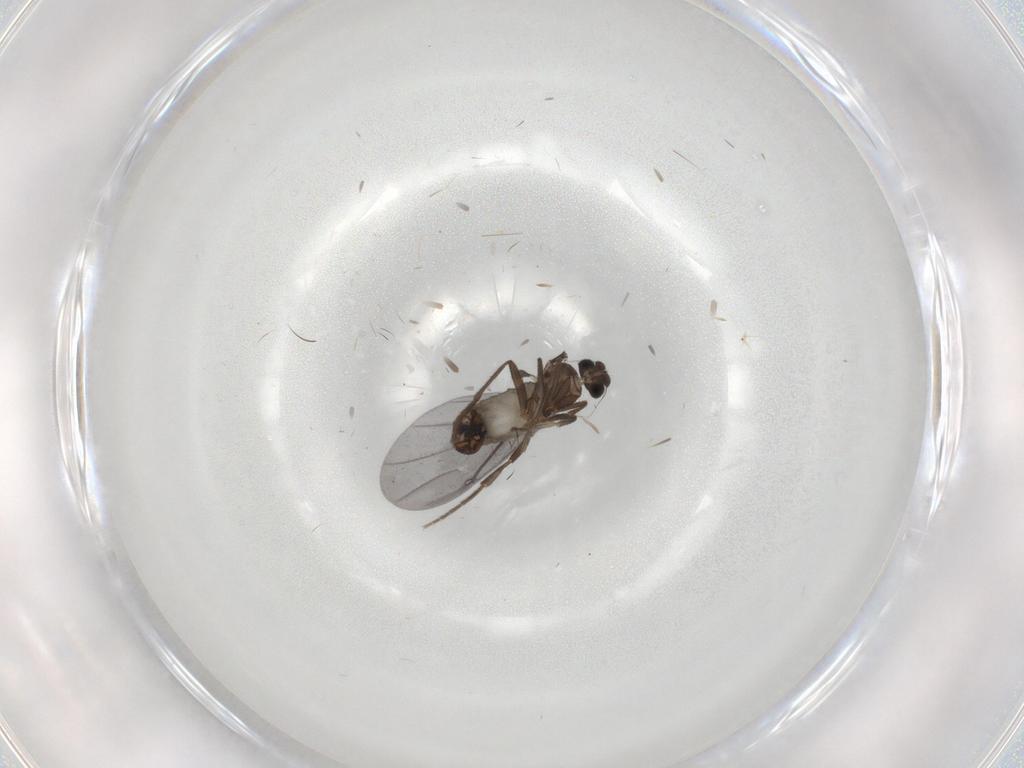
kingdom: Animalia
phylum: Arthropoda
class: Insecta
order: Diptera
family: Phoridae
